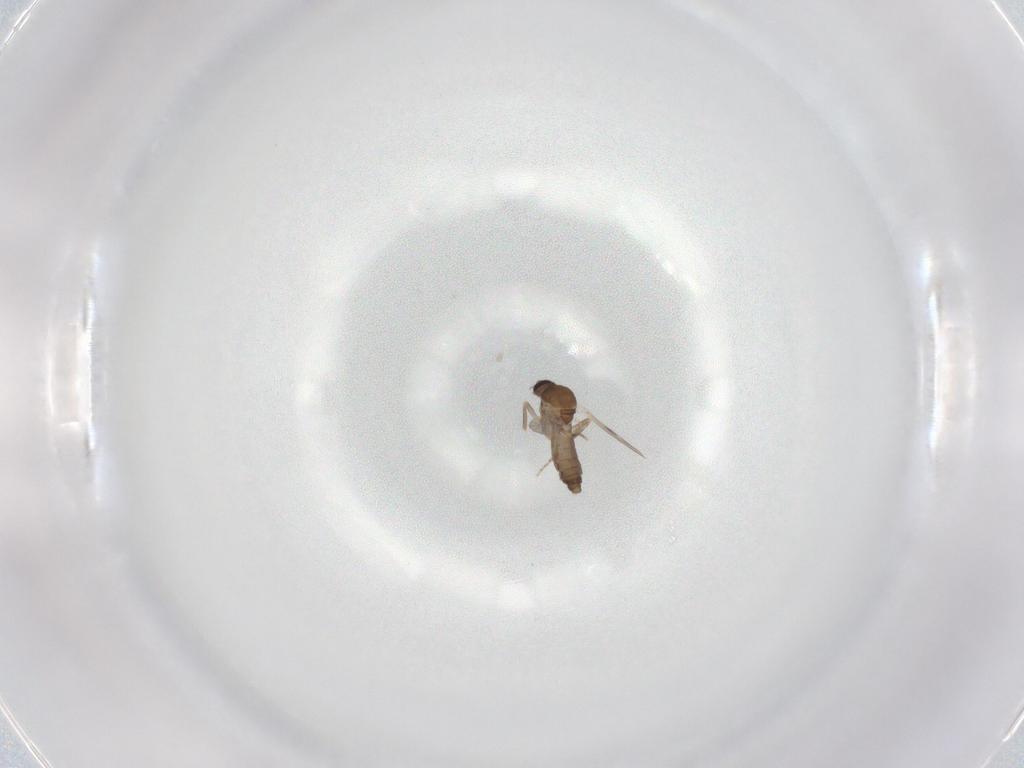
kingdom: Animalia
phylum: Arthropoda
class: Insecta
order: Diptera
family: Ceratopogonidae
